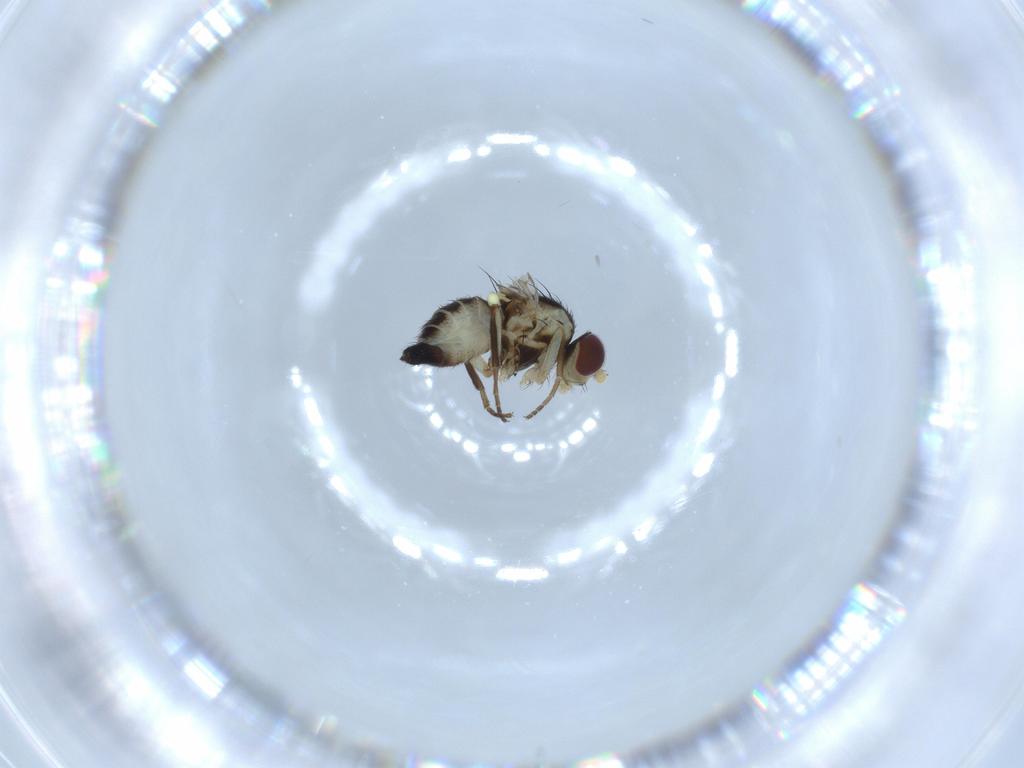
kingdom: Animalia
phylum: Arthropoda
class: Insecta
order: Diptera
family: Agromyzidae
